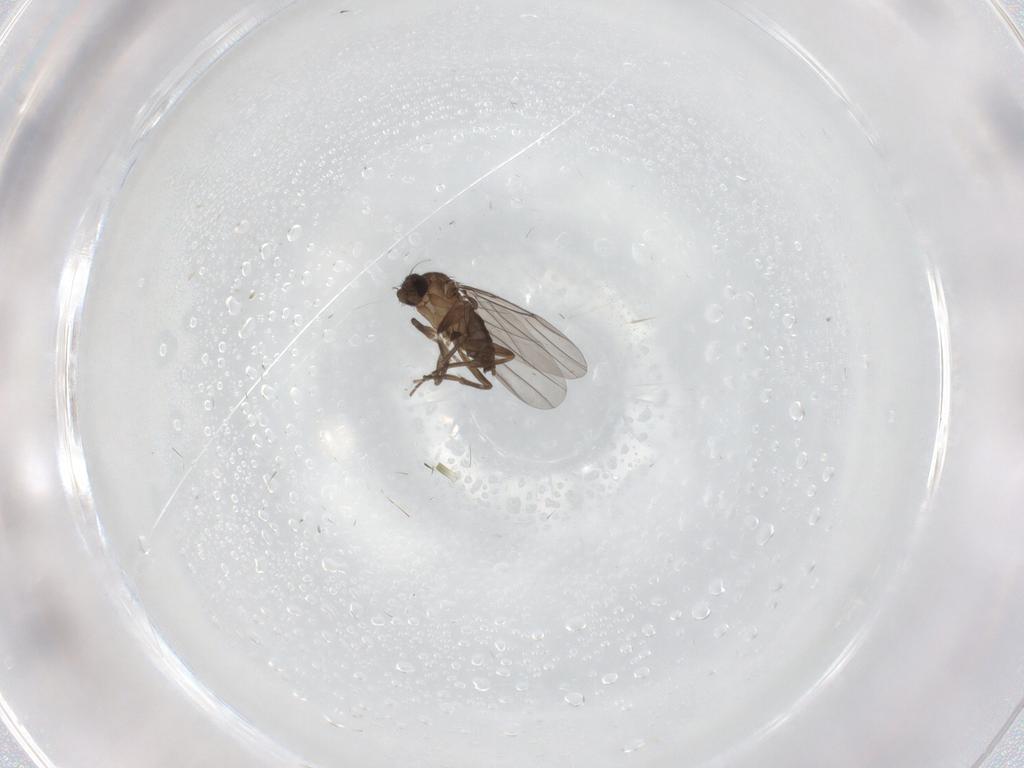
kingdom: Animalia
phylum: Arthropoda
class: Insecta
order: Diptera
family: Phoridae
